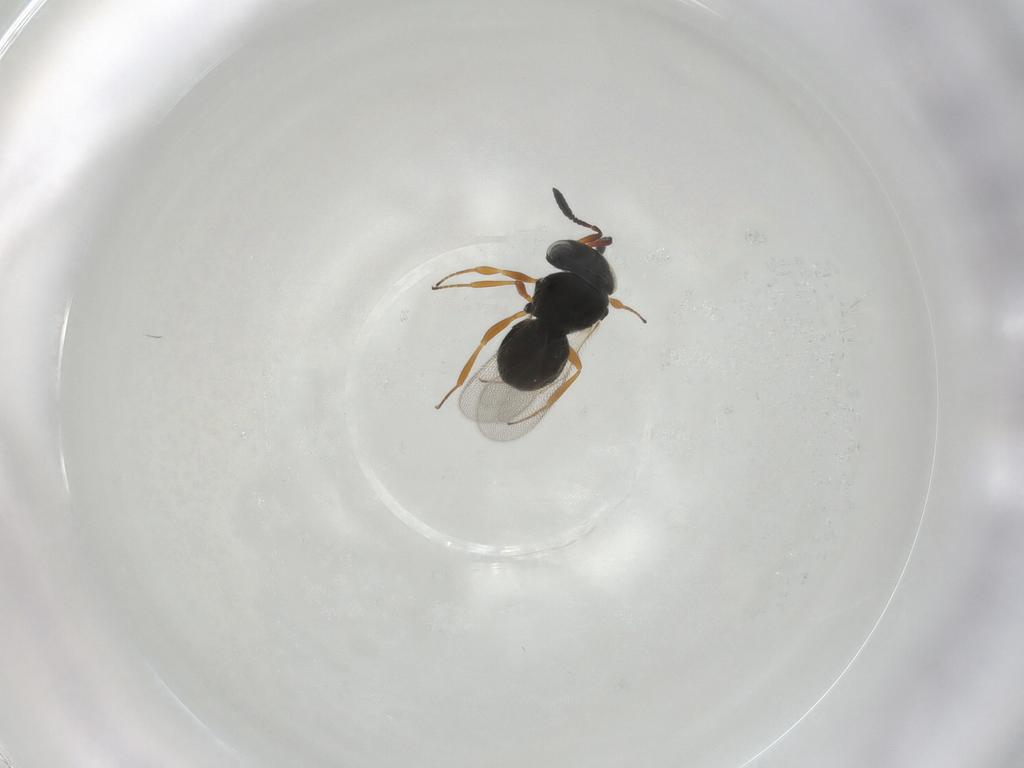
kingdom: Animalia
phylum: Arthropoda
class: Insecta
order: Hymenoptera
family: Scelionidae
